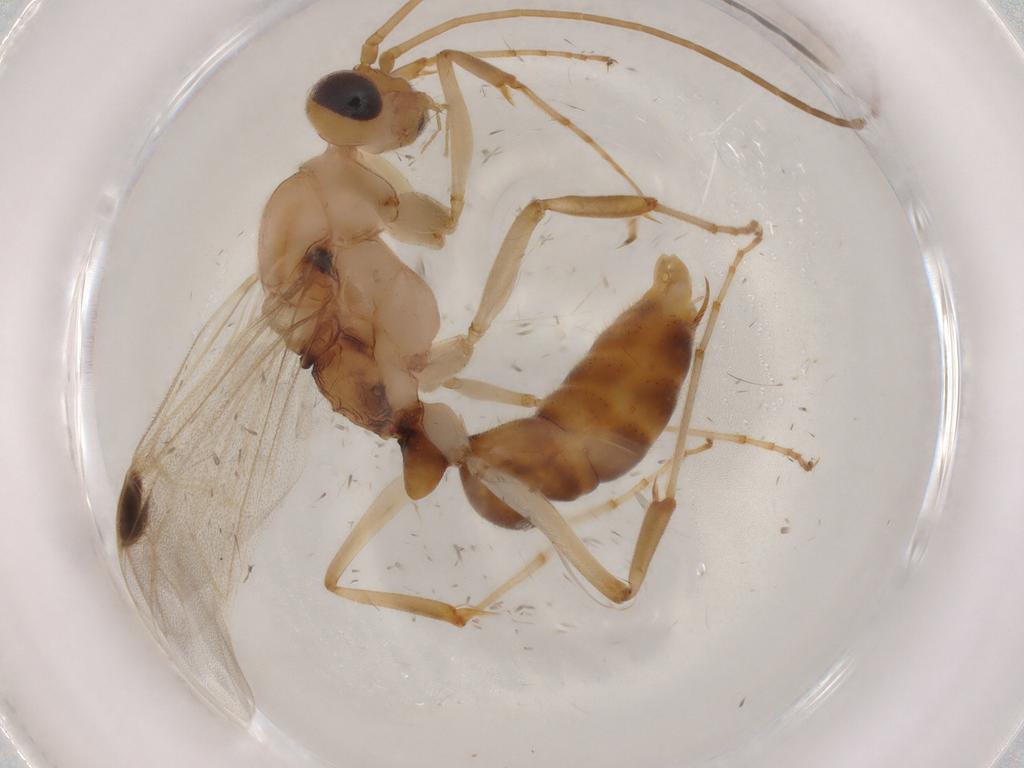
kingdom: Animalia
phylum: Arthropoda
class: Insecta
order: Hymenoptera
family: Formicidae
